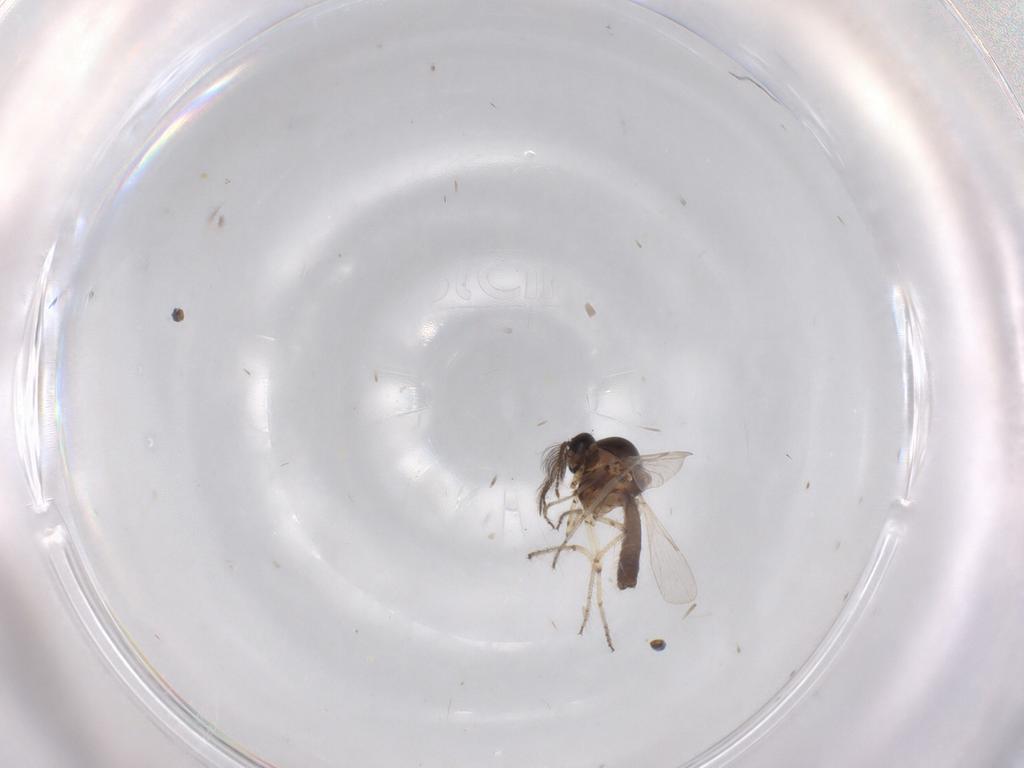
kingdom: Animalia
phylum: Arthropoda
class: Insecta
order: Diptera
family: Ceratopogonidae
